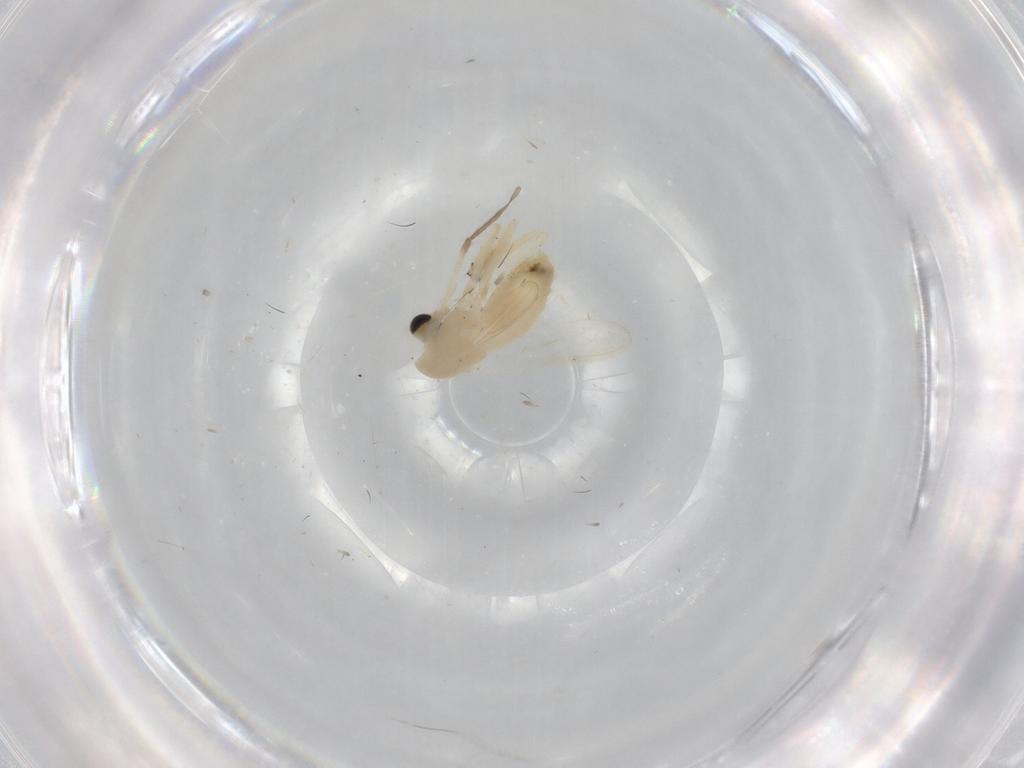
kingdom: Animalia
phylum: Arthropoda
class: Insecta
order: Diptera
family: Chironomidae
